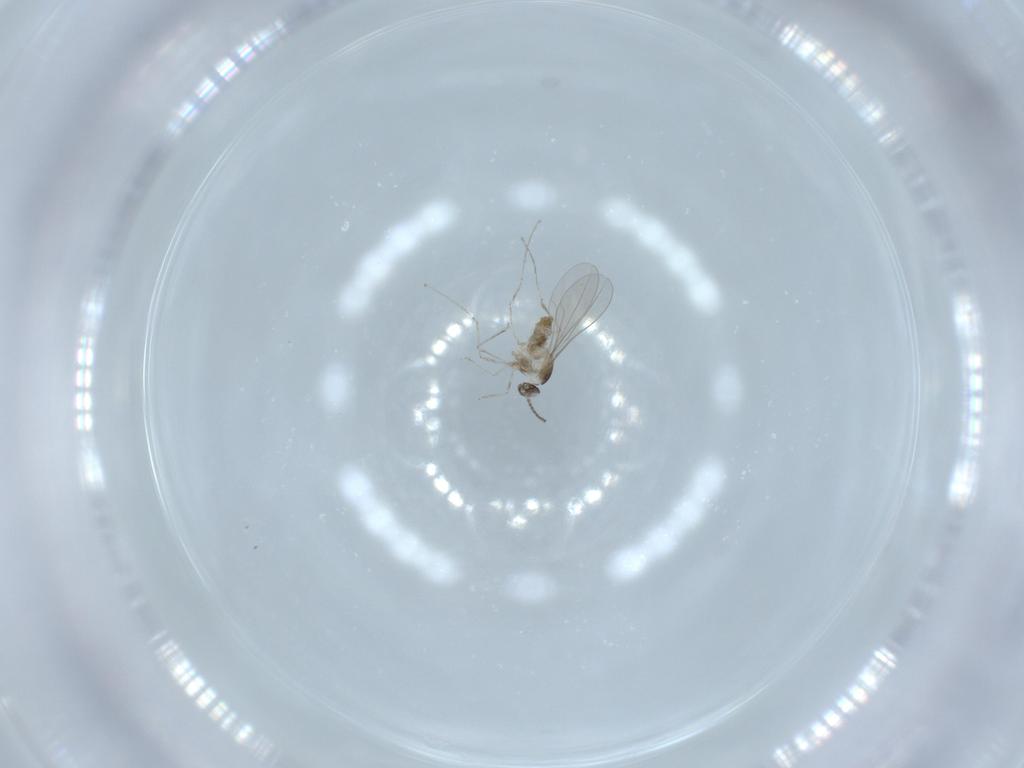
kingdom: Animalia
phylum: Arthropoda
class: Insecta
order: Diptera
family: Cecidomyiidae
